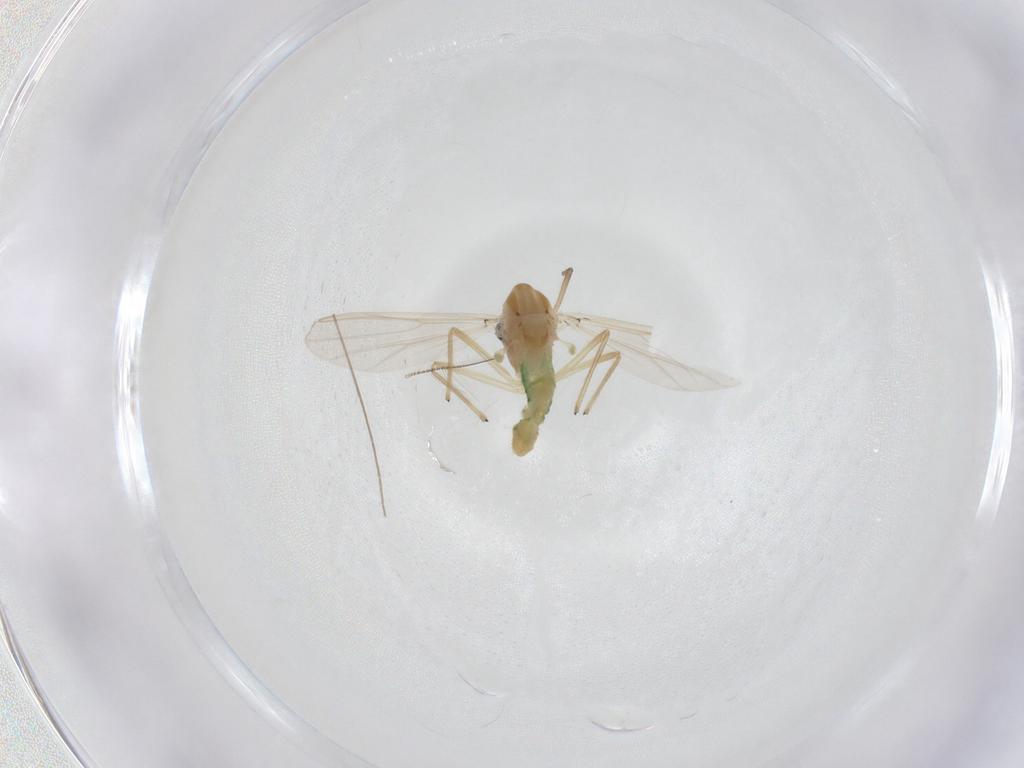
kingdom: Animalia
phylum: Arthropoda
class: Insecta
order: Diptera
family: Chironomidae
